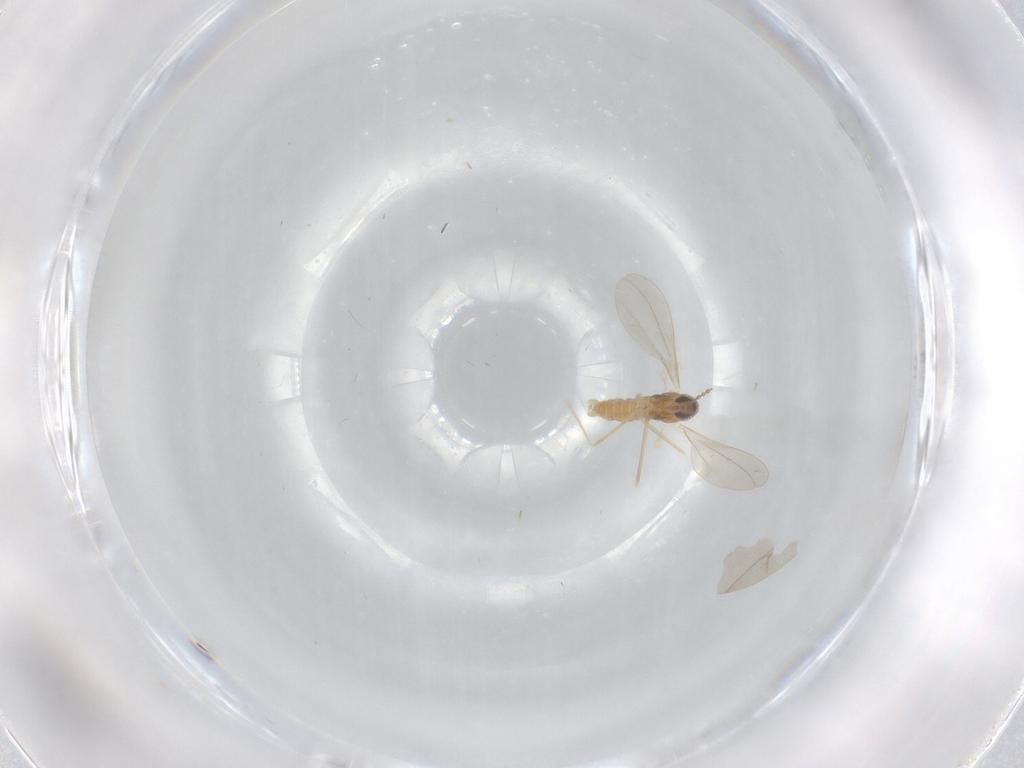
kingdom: Animalia
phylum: Arthropoda
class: Insecta
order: Diptera
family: Cecidomyiidae
